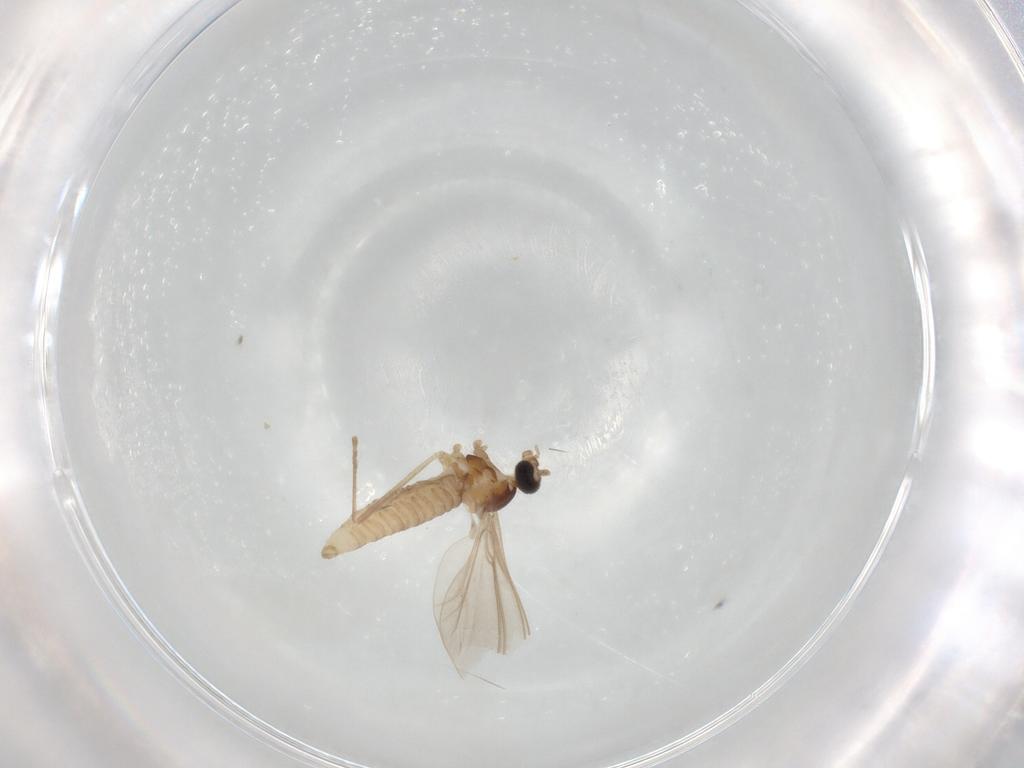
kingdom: Animalia
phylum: Arthropoda
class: Insecta
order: Diptera
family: Cecidomyiidae
